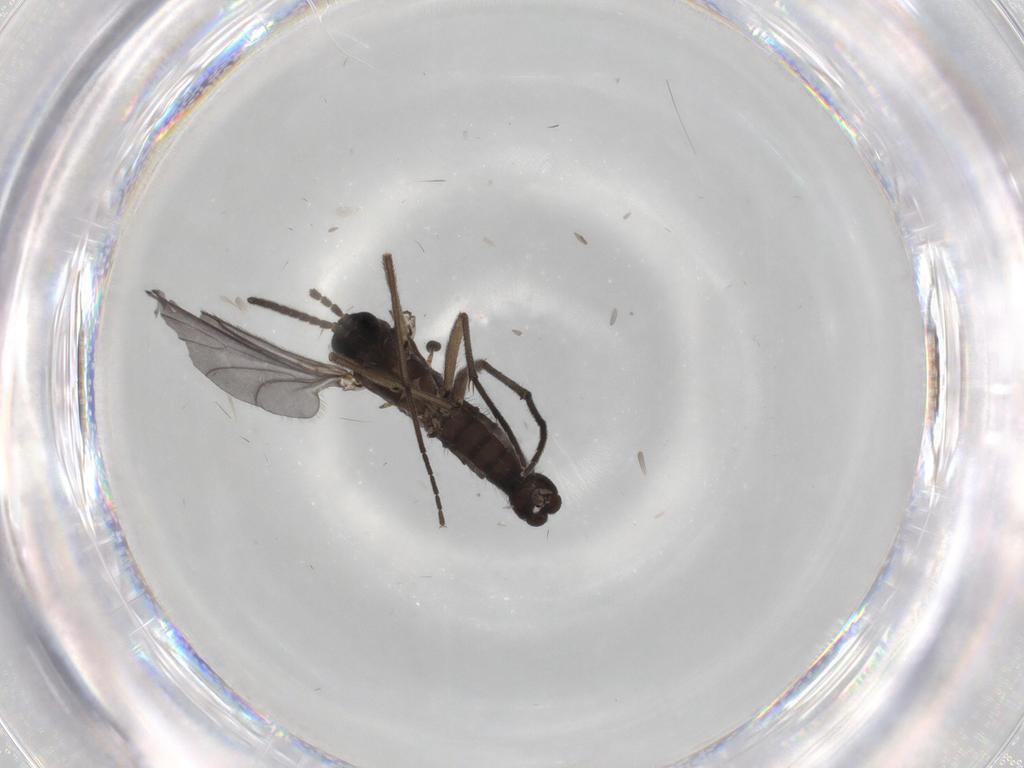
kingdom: Animalia
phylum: Arthropoda
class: Insecta
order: Diptera
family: Sciaridae
